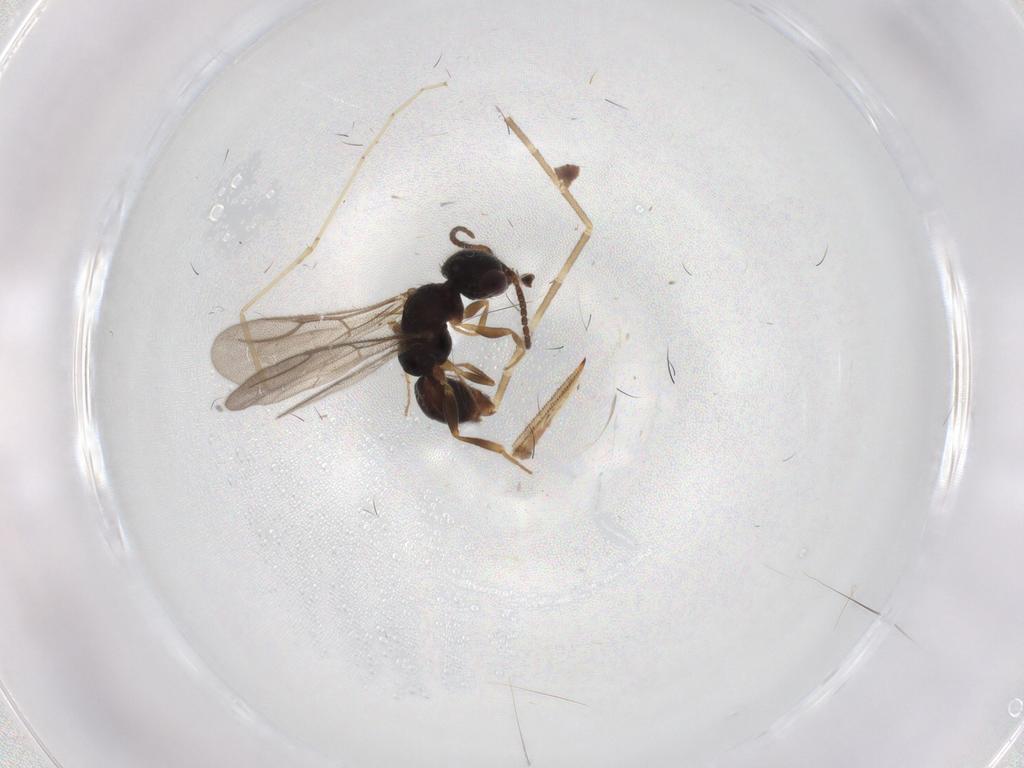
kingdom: Animalia
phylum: Arthropoda
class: Insecta
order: Hymenoptera
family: Bethylidae
